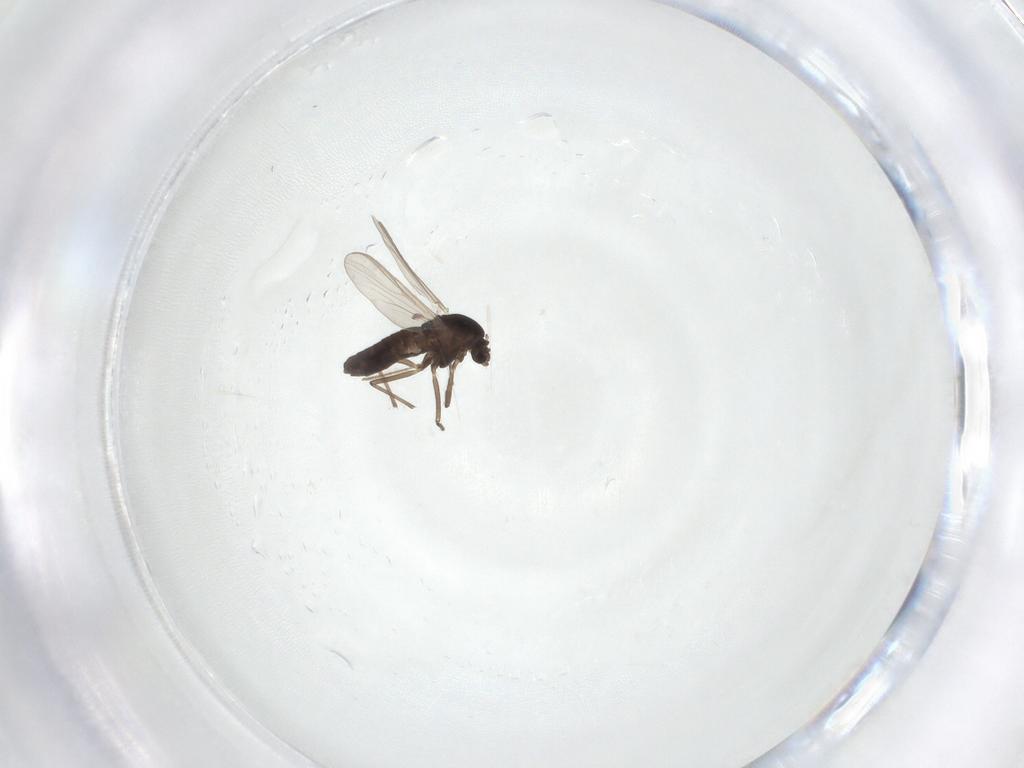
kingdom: Animalia
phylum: Arthropoda
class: Insecta
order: Diptera
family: Chironomidae
